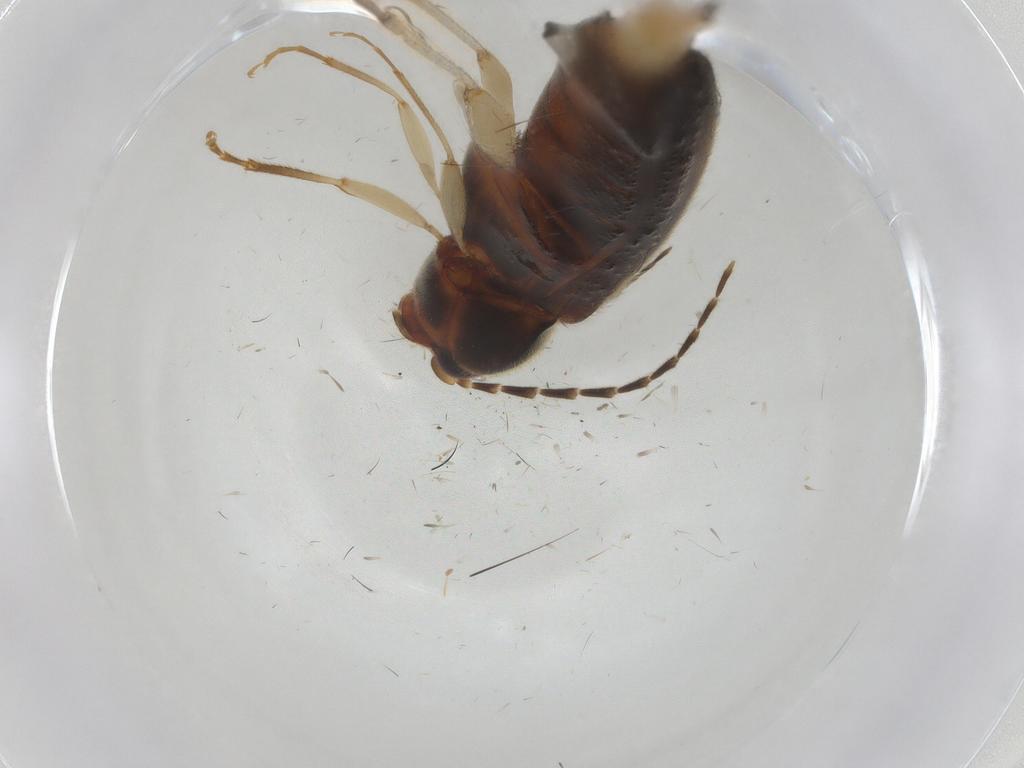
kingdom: Animalia
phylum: Arthropoda
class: Insecta
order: Coleoptera
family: Elateridae
